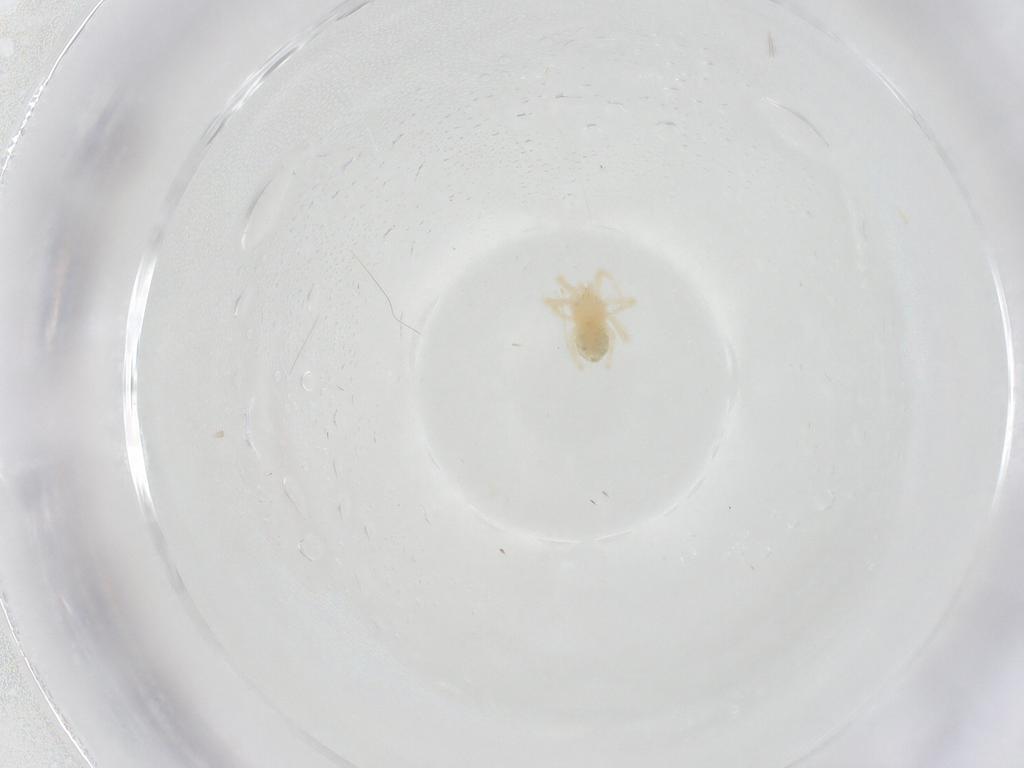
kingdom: Animalia
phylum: Arthropoda
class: Arachnida
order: Trombidiformes
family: Anystidae
